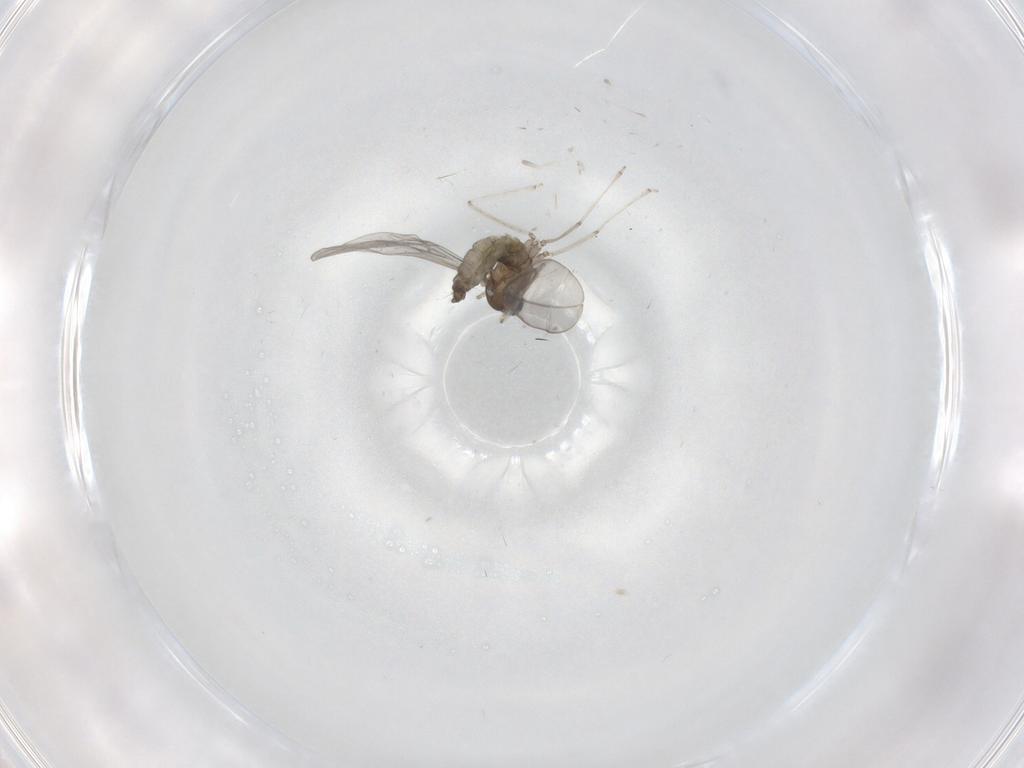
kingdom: Animalia
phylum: Arthropoda
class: Insecta
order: Diptera
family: Cecidomyiidae
